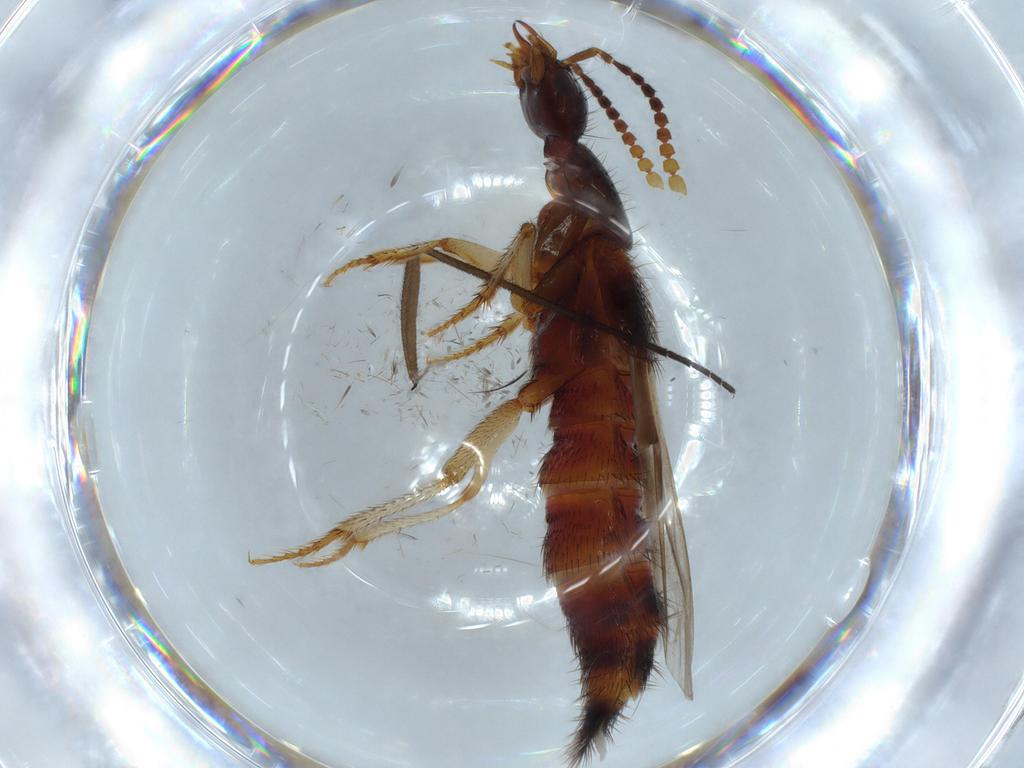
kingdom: Animalia
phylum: Arthropoda
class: Insecta
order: Coleoptera
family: Staphylinidae
